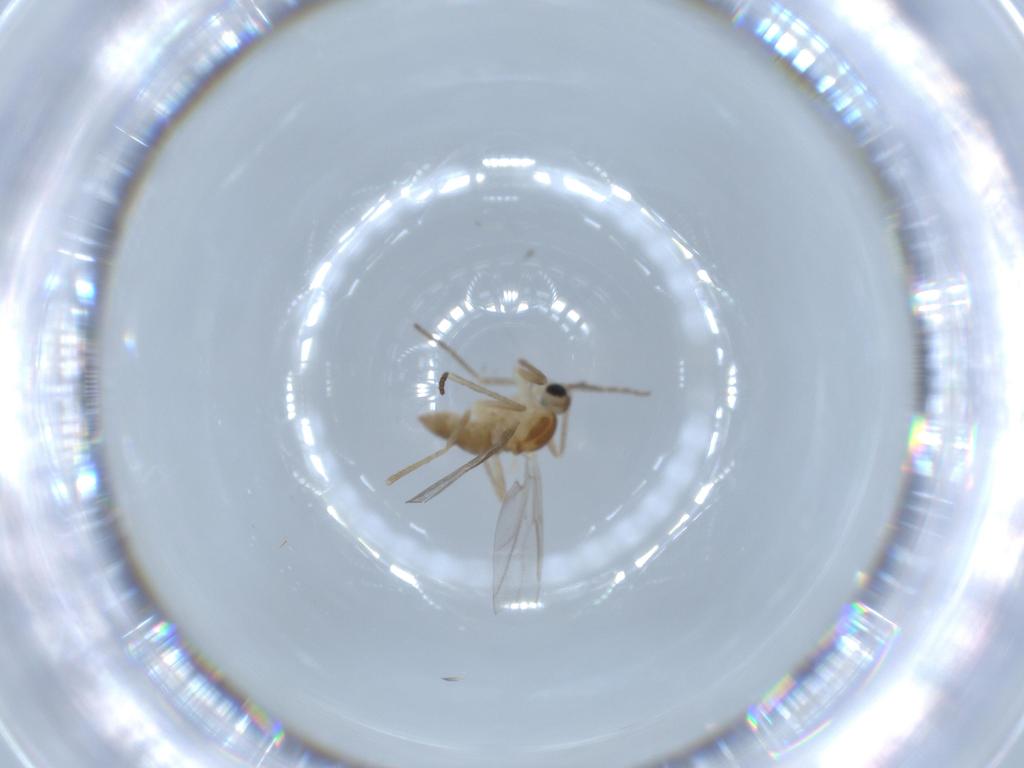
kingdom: Animalia
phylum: Arthropoda
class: Insecta
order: Diptera
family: Cecidomyiidae
